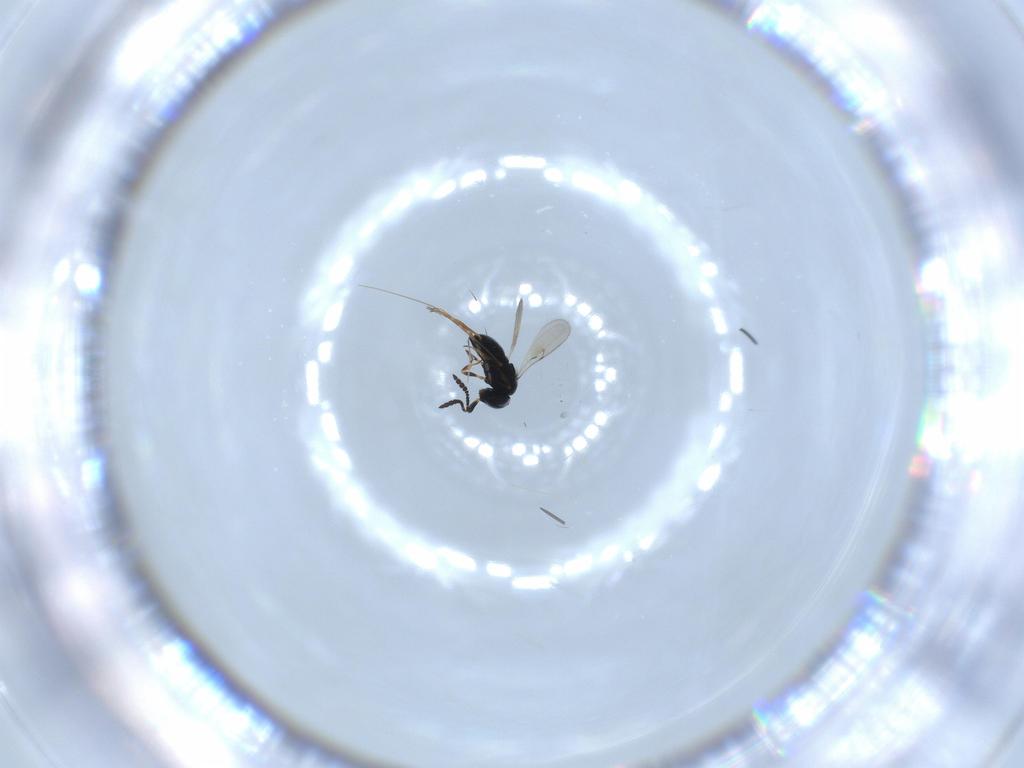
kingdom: Animalia
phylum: Arthropoda
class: Insecta
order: Hymenoptera
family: Scelionidae
